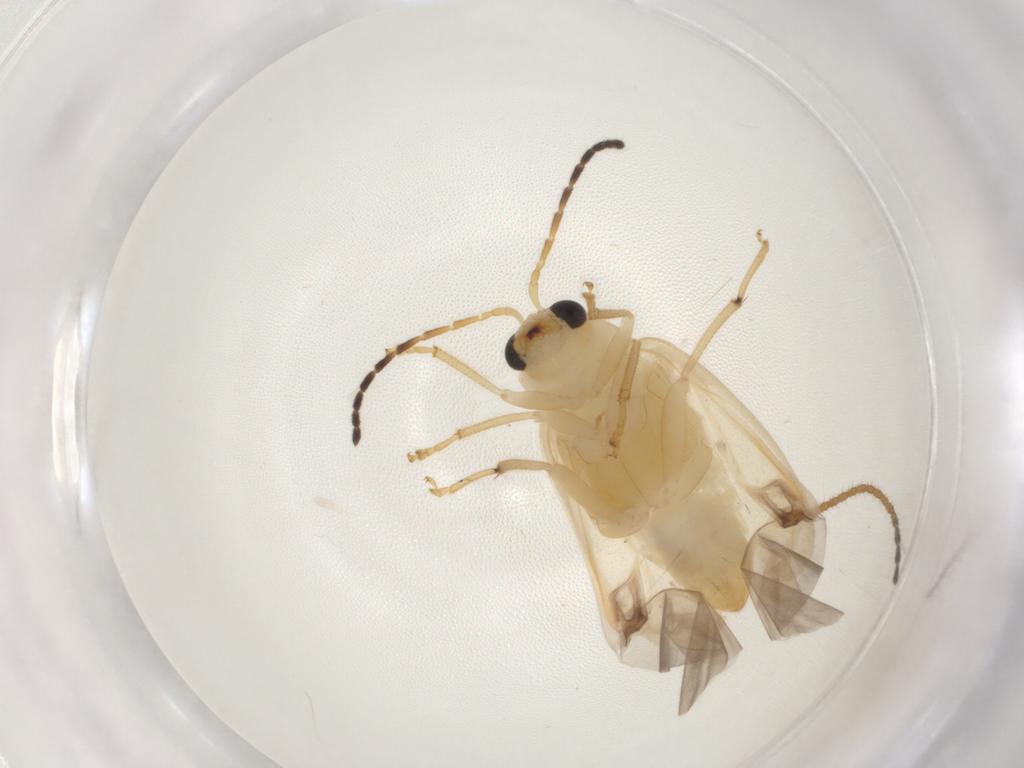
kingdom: Animalia
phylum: Arthropoda
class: Insecta
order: Coleoptera
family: Chrysomelidae
